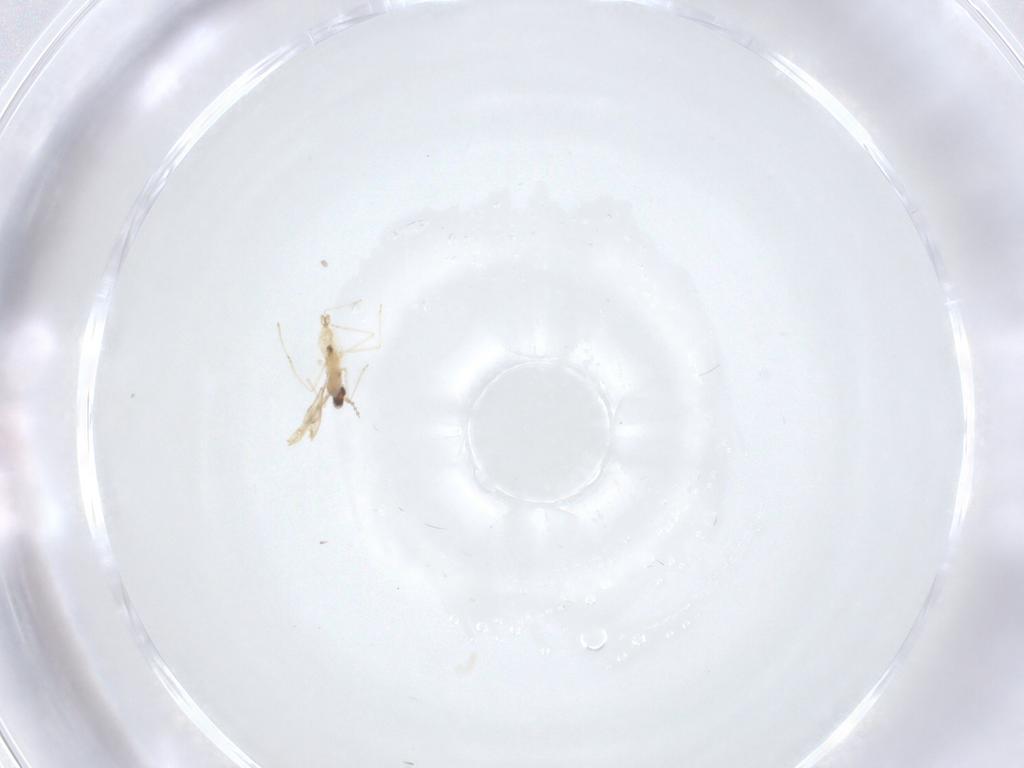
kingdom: Animalia
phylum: Arthropoda
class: Insecta
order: Diptera
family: Cecidomyiidae
